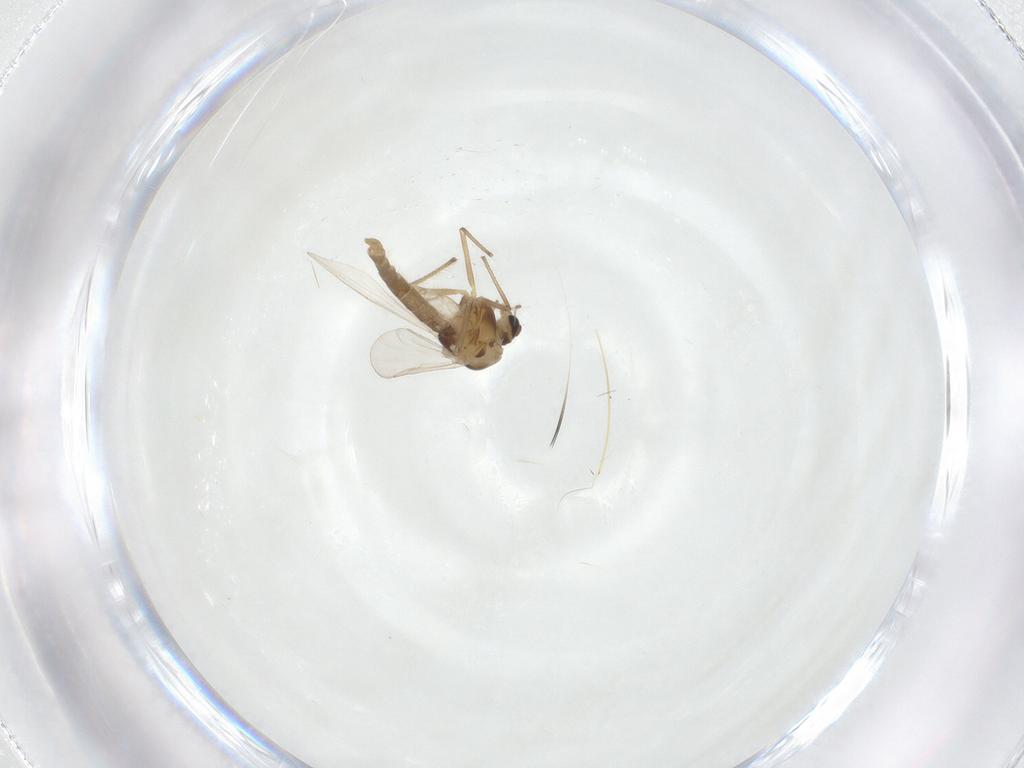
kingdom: Animalia
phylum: Arthropoda
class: Insecta
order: Diptera
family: Chironomidae
